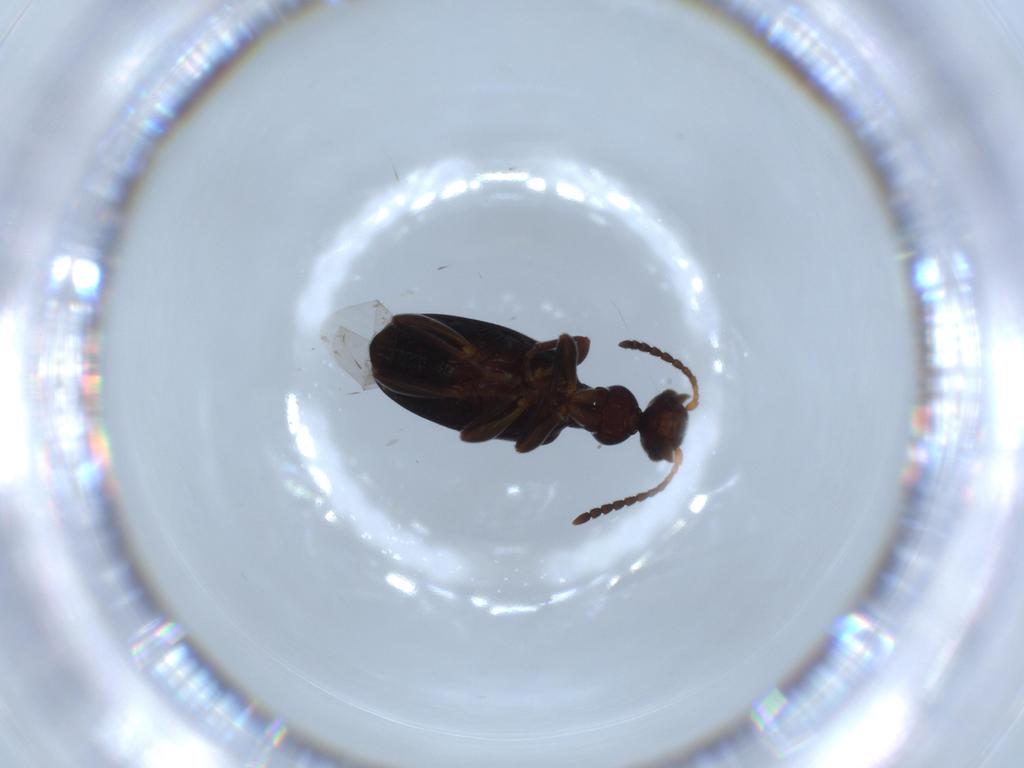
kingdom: Animalia
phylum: Arthropoda
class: Insecta
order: Coleoptera
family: Anthicidae
